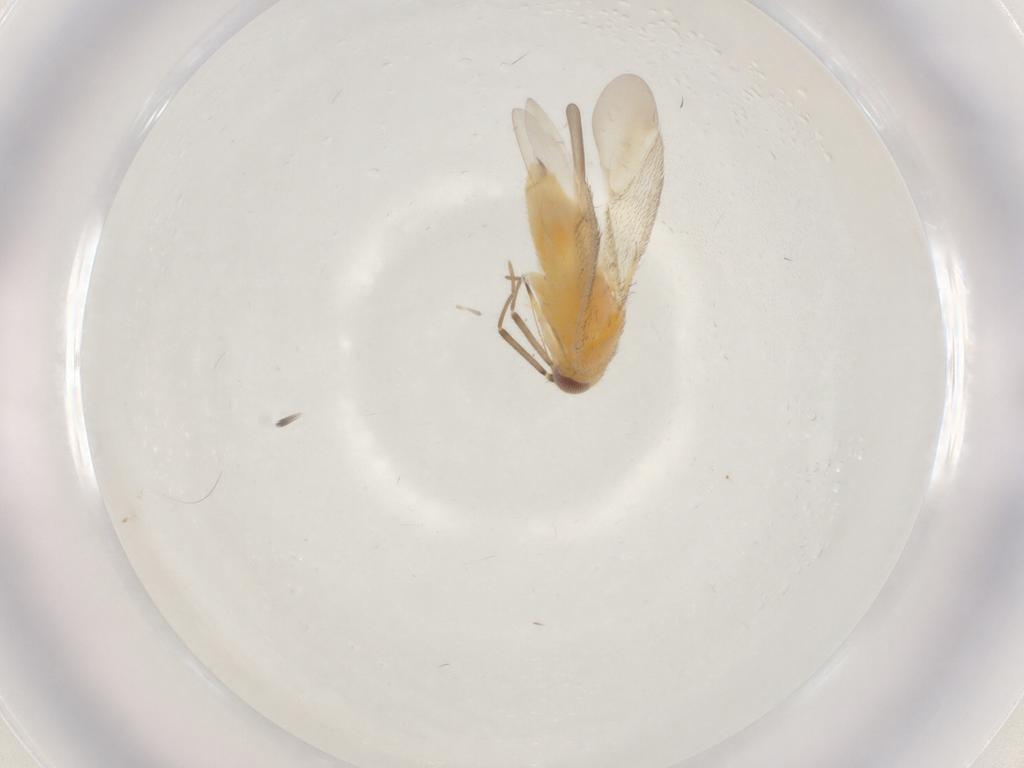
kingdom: Animalia
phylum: Arthropoda
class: Insecta
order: Hemiptera
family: Miridae
